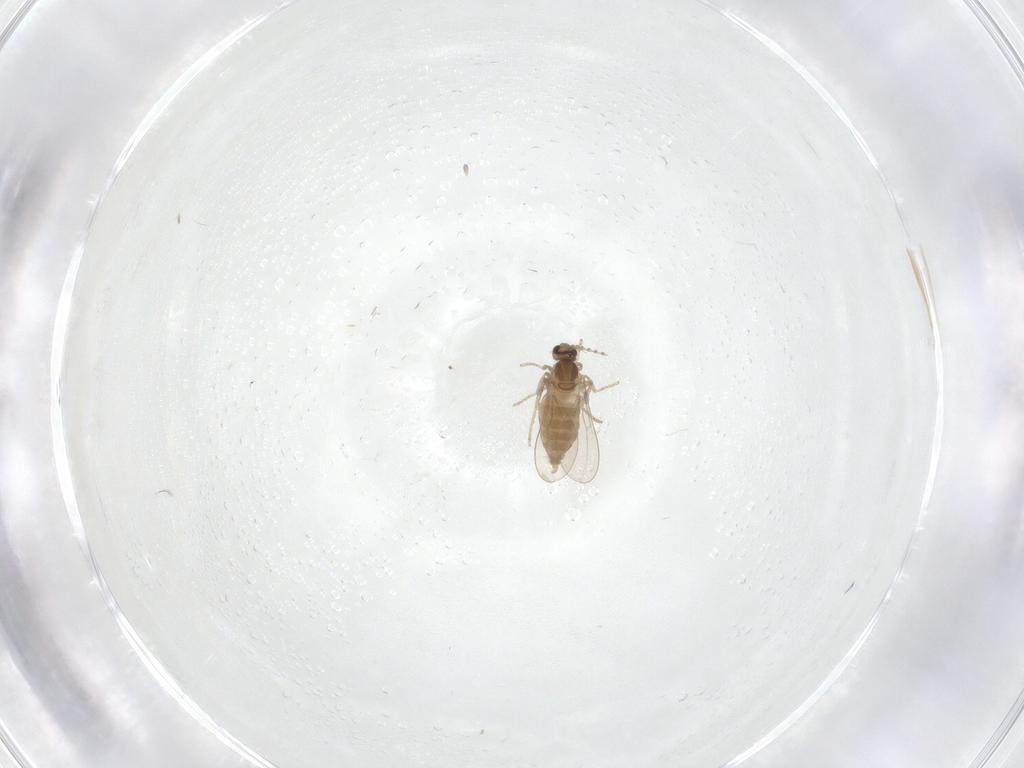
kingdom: Animalia
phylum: Arthropoda
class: Insecta
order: Diptera
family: Cecidomyiidae
